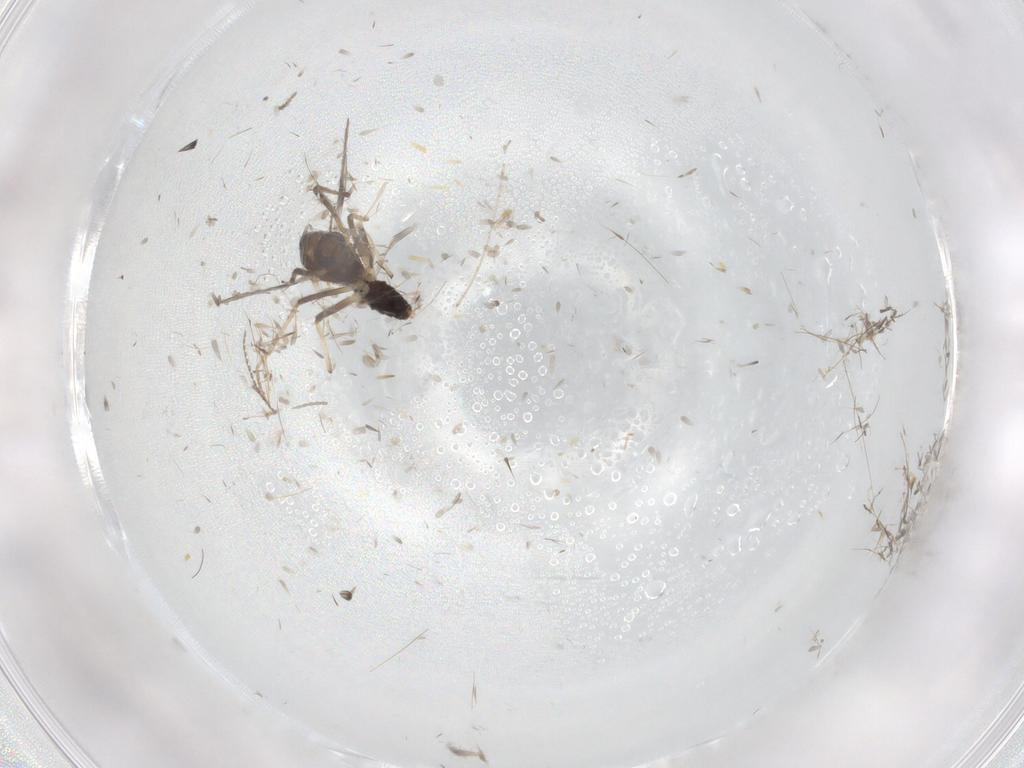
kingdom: Animalia
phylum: Arthropoda
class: Insecta
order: Diptera
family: Chironomidae
